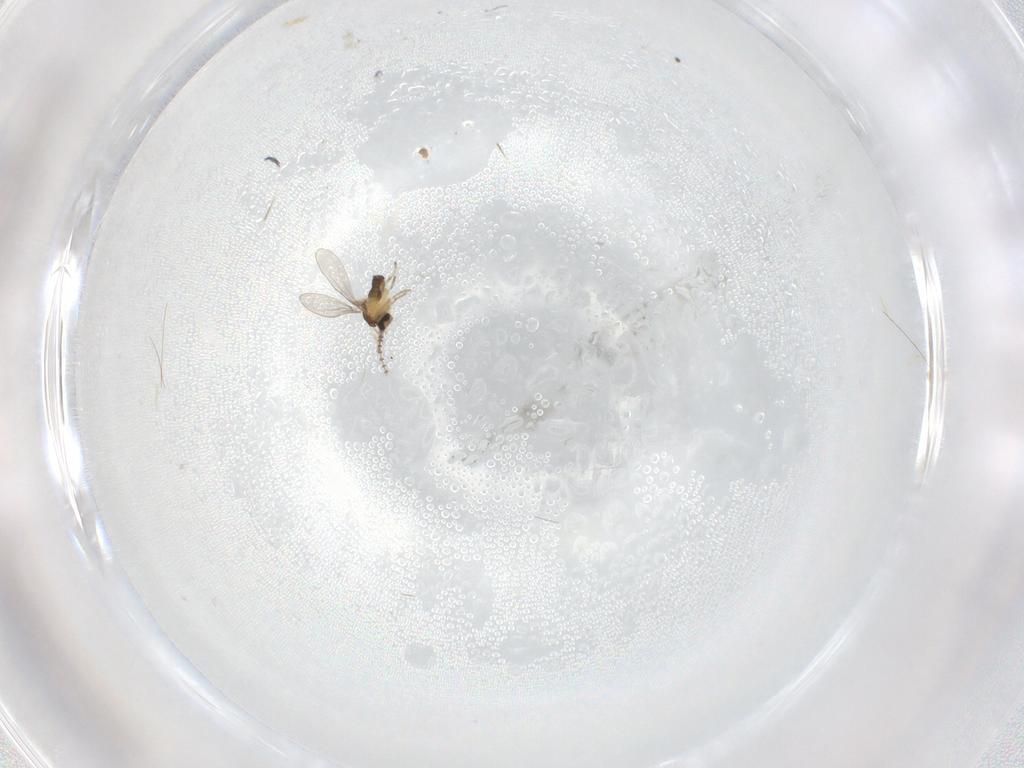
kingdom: Animalia
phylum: Arthropoda
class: Insecta
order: Diptera
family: Cecidomyiidae
